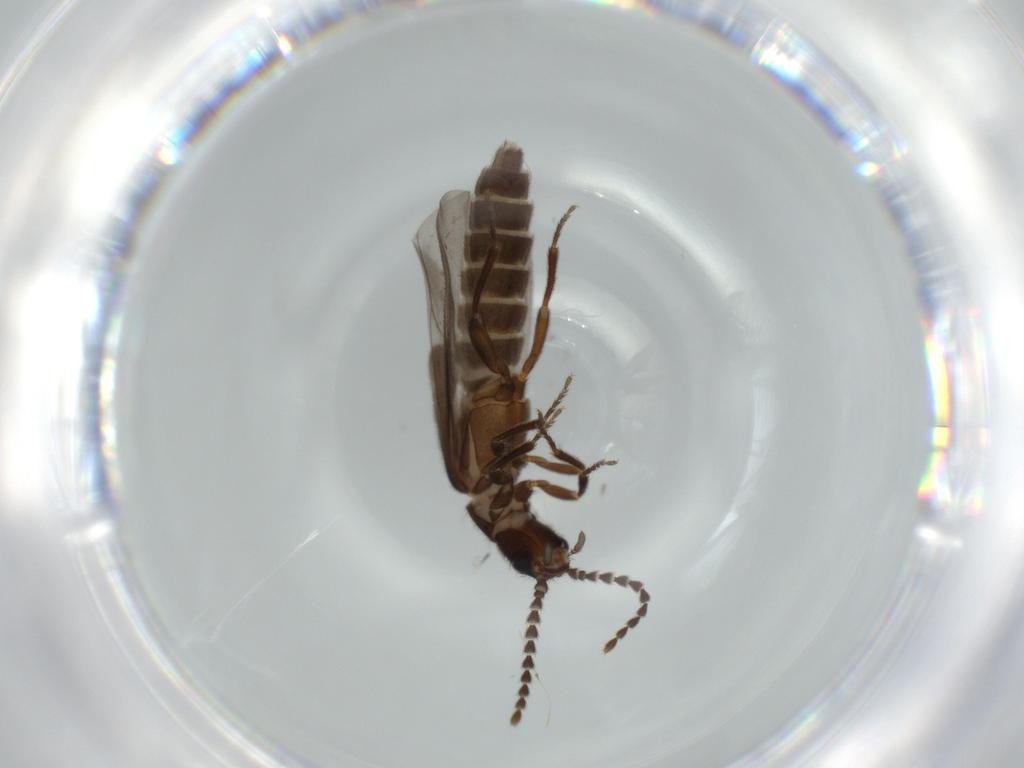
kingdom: Animalia
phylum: Arthropoda
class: Insecta
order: Coleoptera
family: Omethidae
